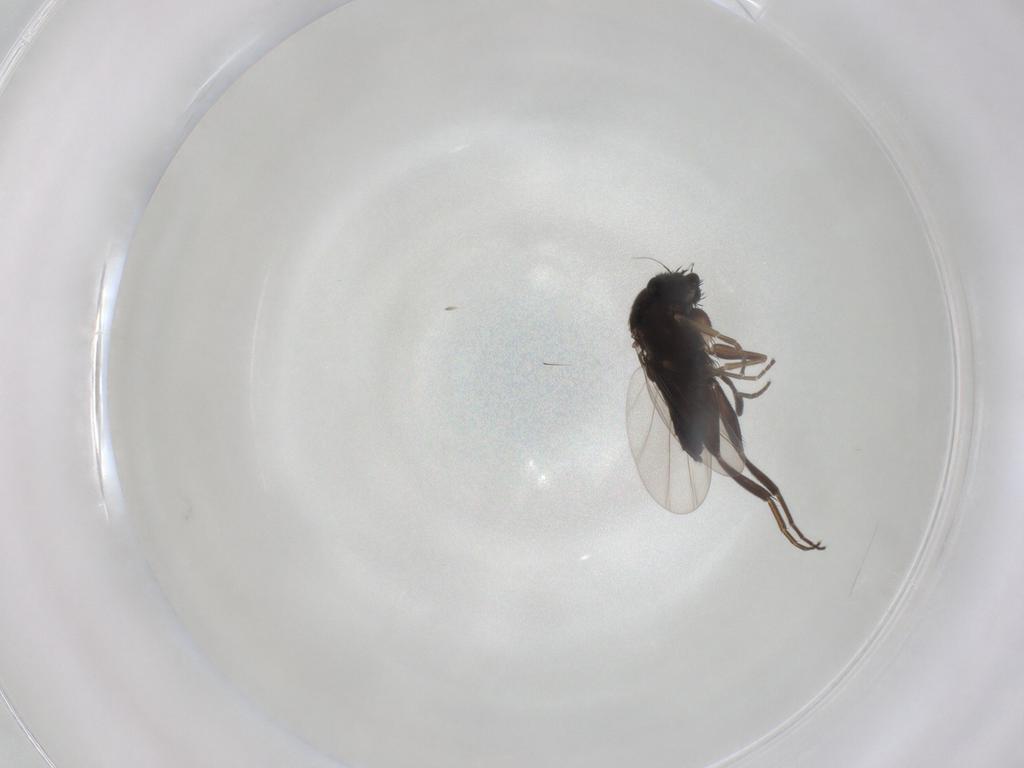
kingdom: Animalia
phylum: Arthropoda
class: Insecta
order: Diptera
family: Phoridae
